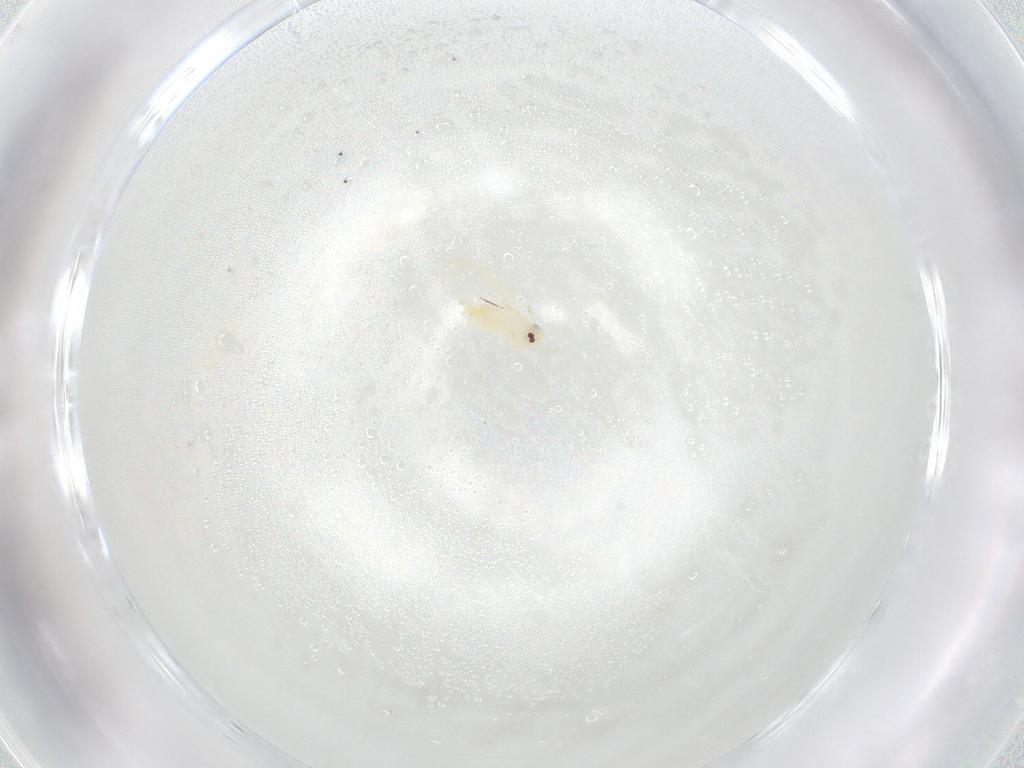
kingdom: Animalia
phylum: Arthropoda
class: Insecta
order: Hemiptera
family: Aleyrodidae
